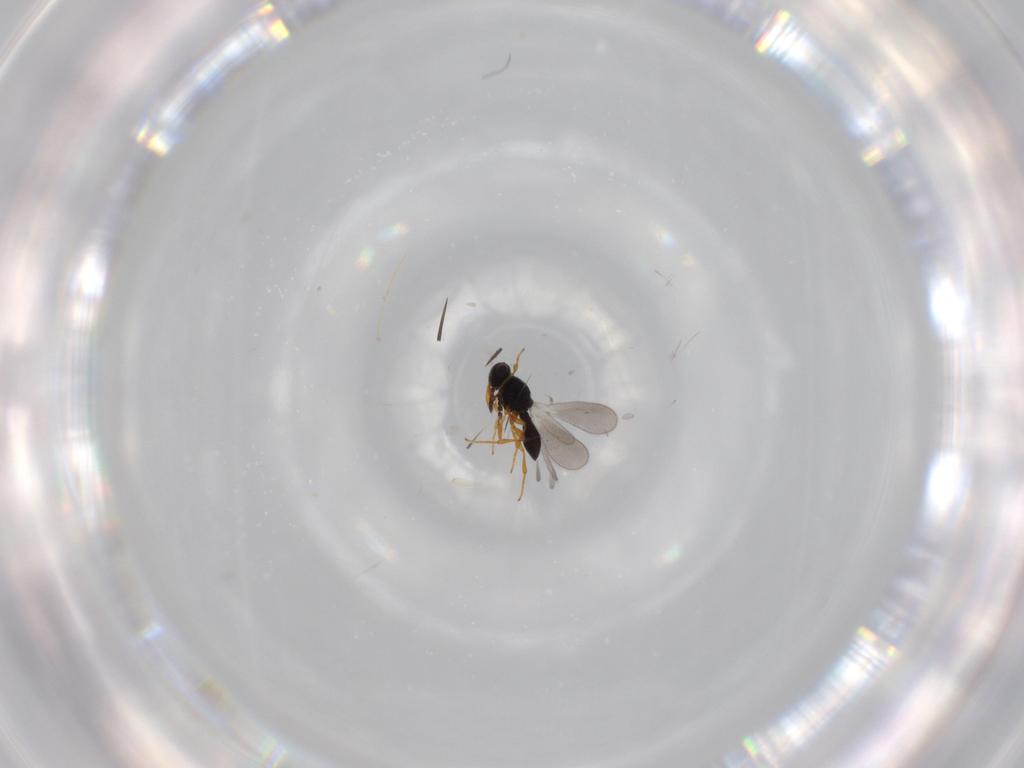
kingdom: Animalia
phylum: Arthropoda
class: Insecta
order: Hymenoptera
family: Platygastridae
